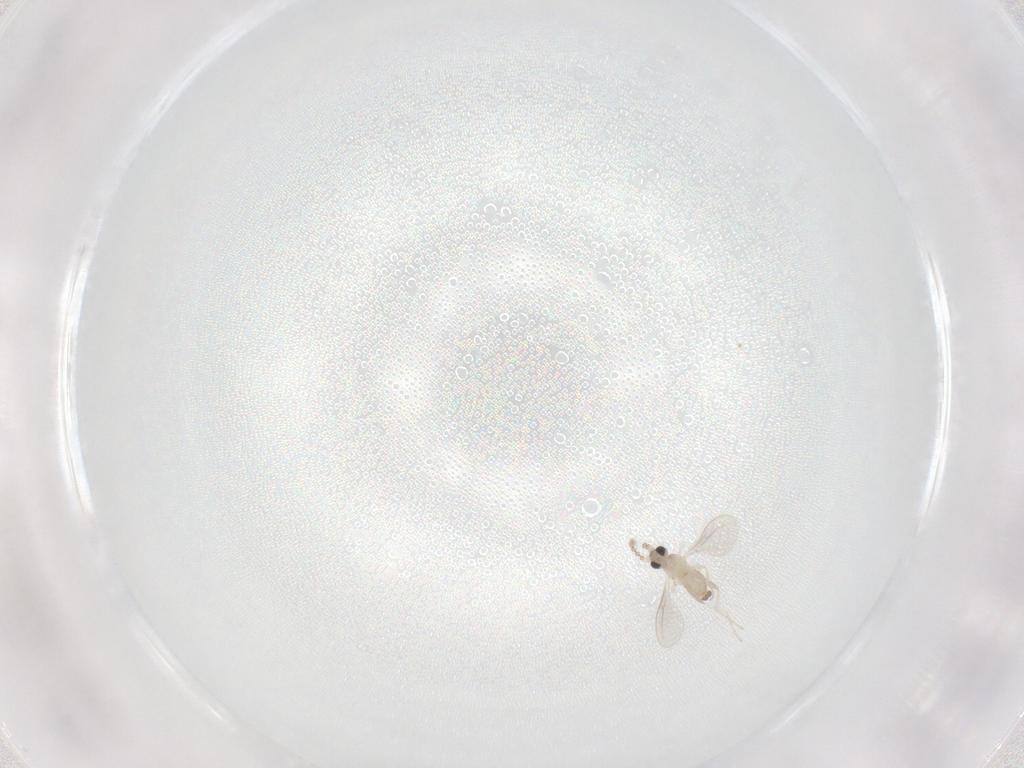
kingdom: Animalia
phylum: Arthropoda
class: Insecta
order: Diptera
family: Cecidomyiidae
